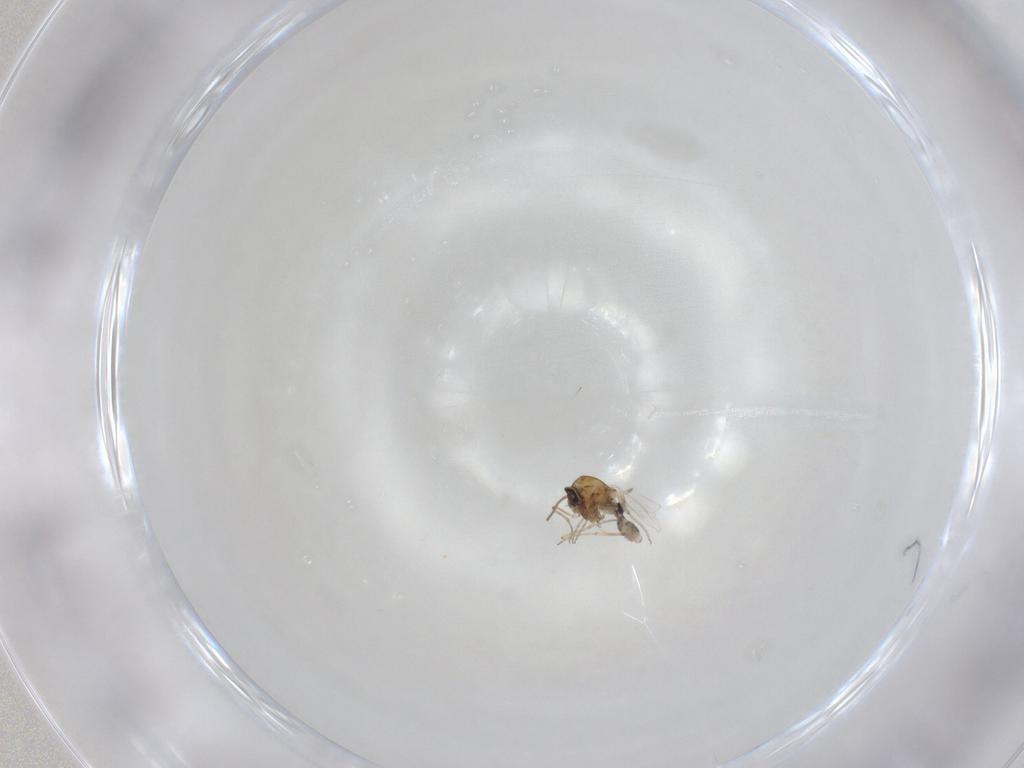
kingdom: Animalia
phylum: Arthropoda
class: Insecta
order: Diptera
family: Ceratopogonidae
